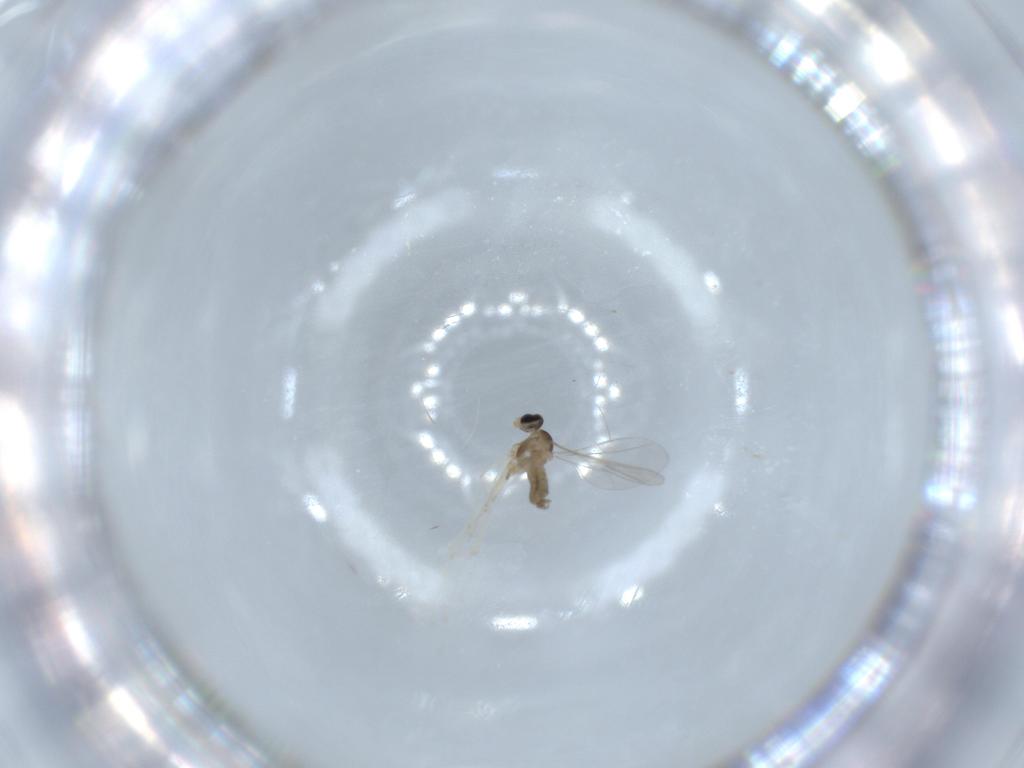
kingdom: Animalia
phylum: Arthropoda
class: Insecta
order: Diptera
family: Cecidomyiidae
